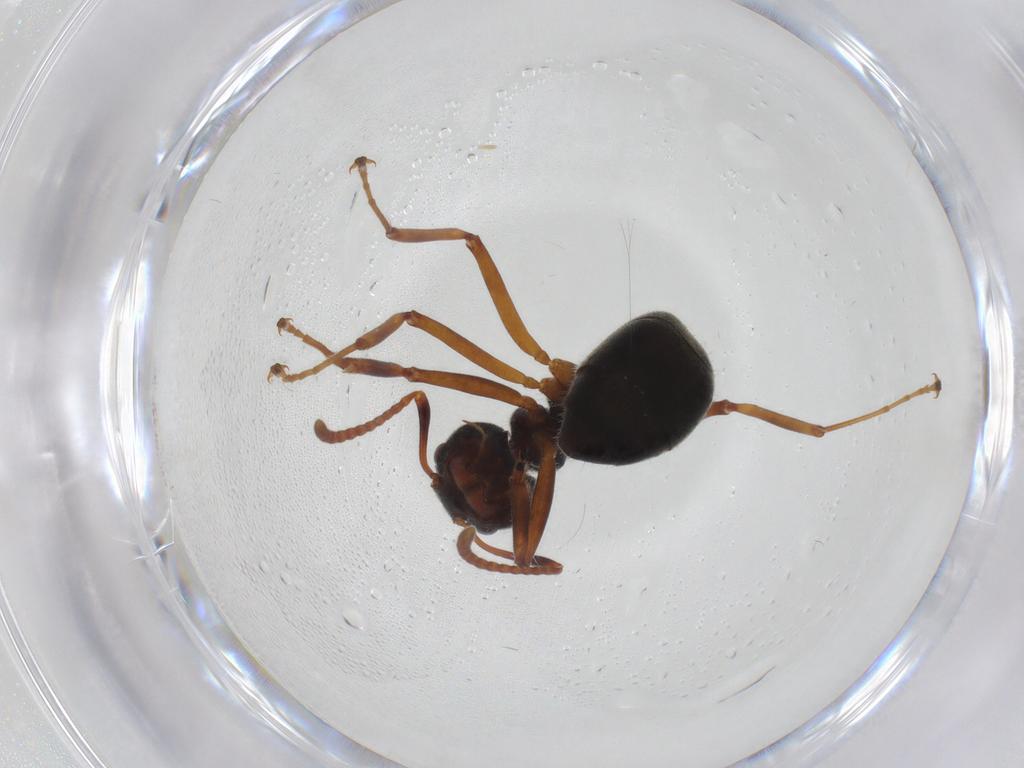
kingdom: Animalia
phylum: Arthropoda
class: Insecta
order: Hymenoptera
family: Formicidae
